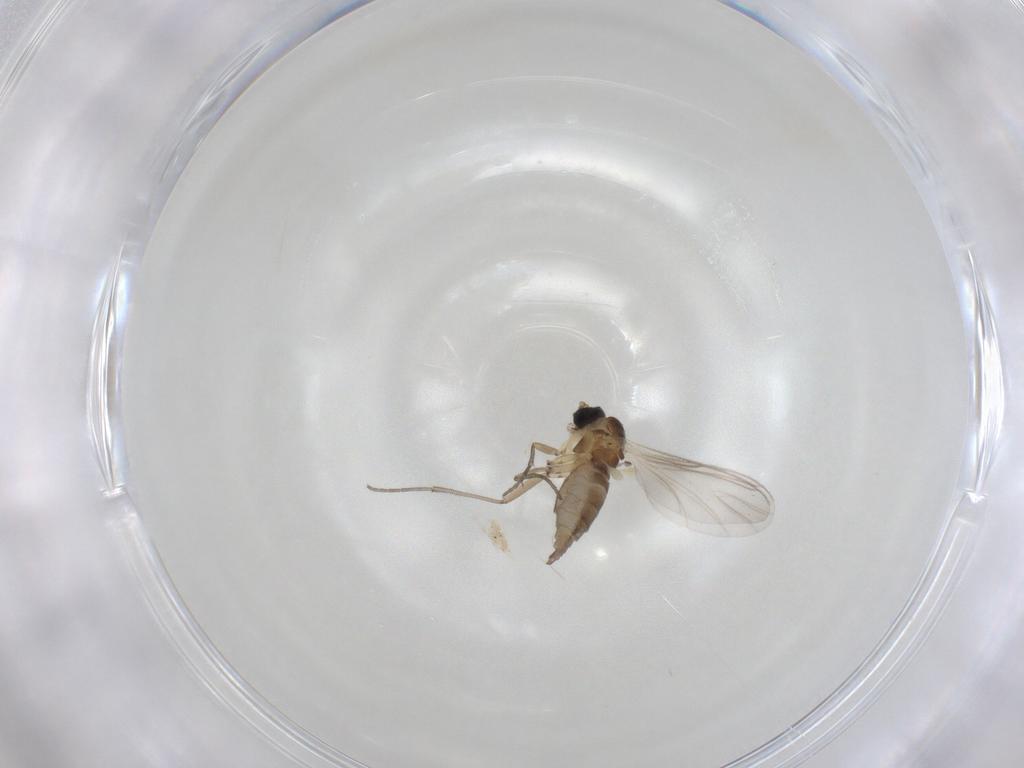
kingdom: Animalia
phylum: Arthropoda
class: Insecta
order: Diptera
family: Sciaridae
